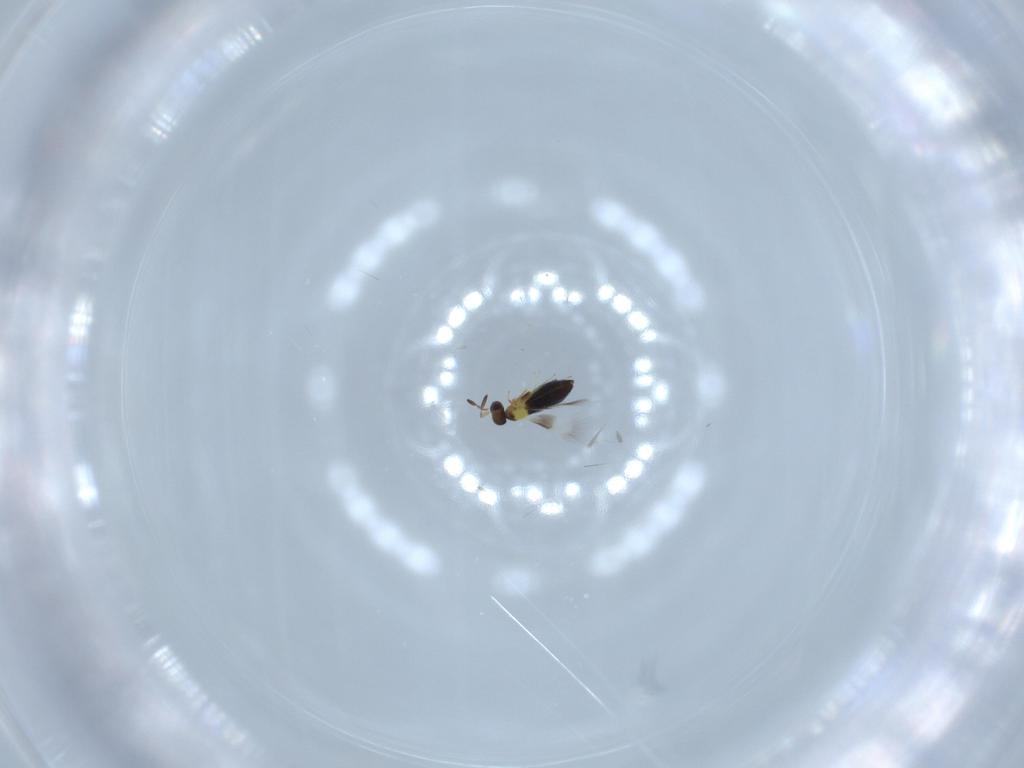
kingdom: Animalia
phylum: Arthropoda
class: Insecta
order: Hymenoptera
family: Signiphoridae
